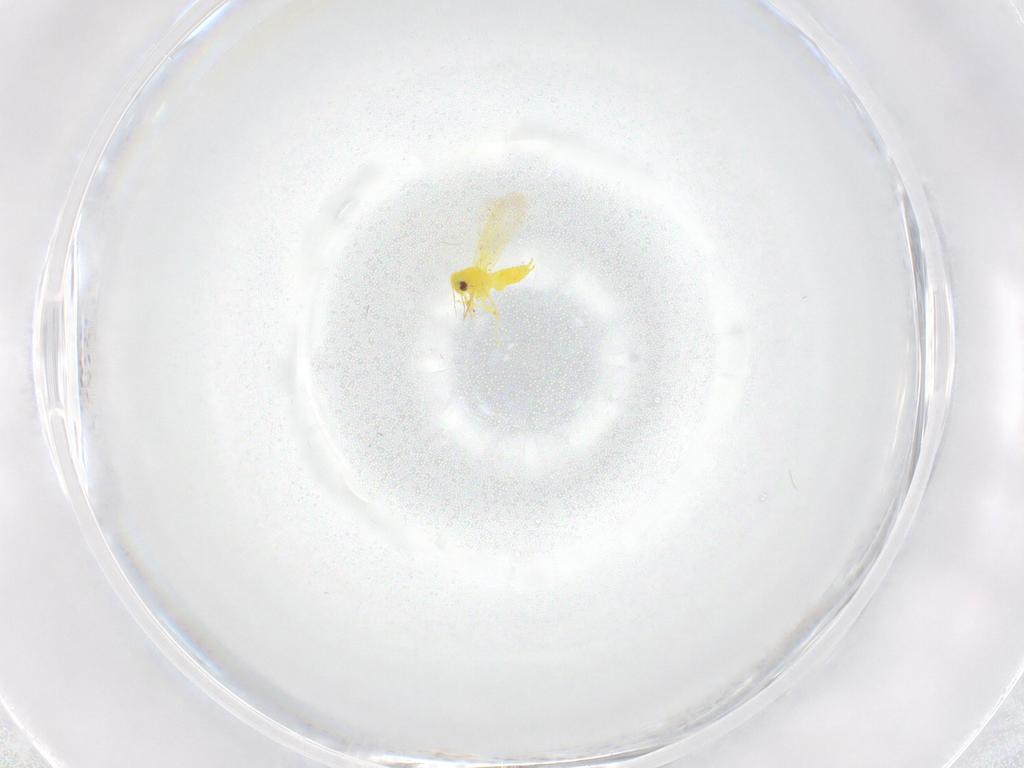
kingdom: Animalia
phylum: Arthropoda
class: Insecta
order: Hemiptera
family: Aleyrodidae
